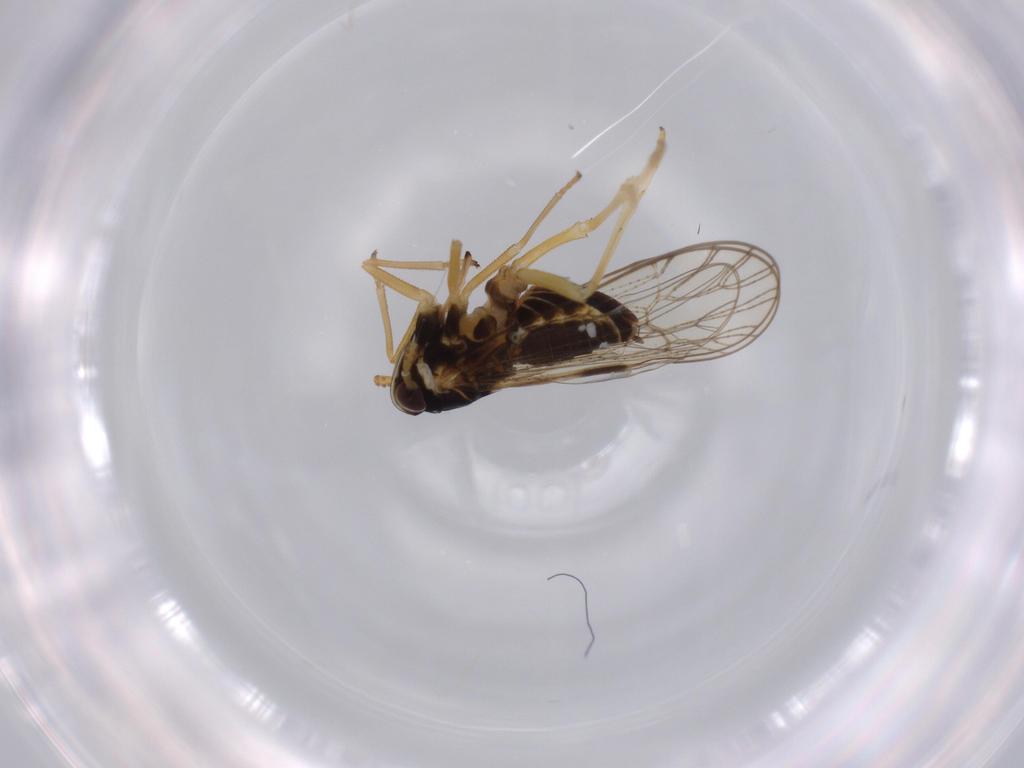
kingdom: Animalia
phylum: Arthropoda
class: Insecta
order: Hemiptera
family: Cicadellidae
